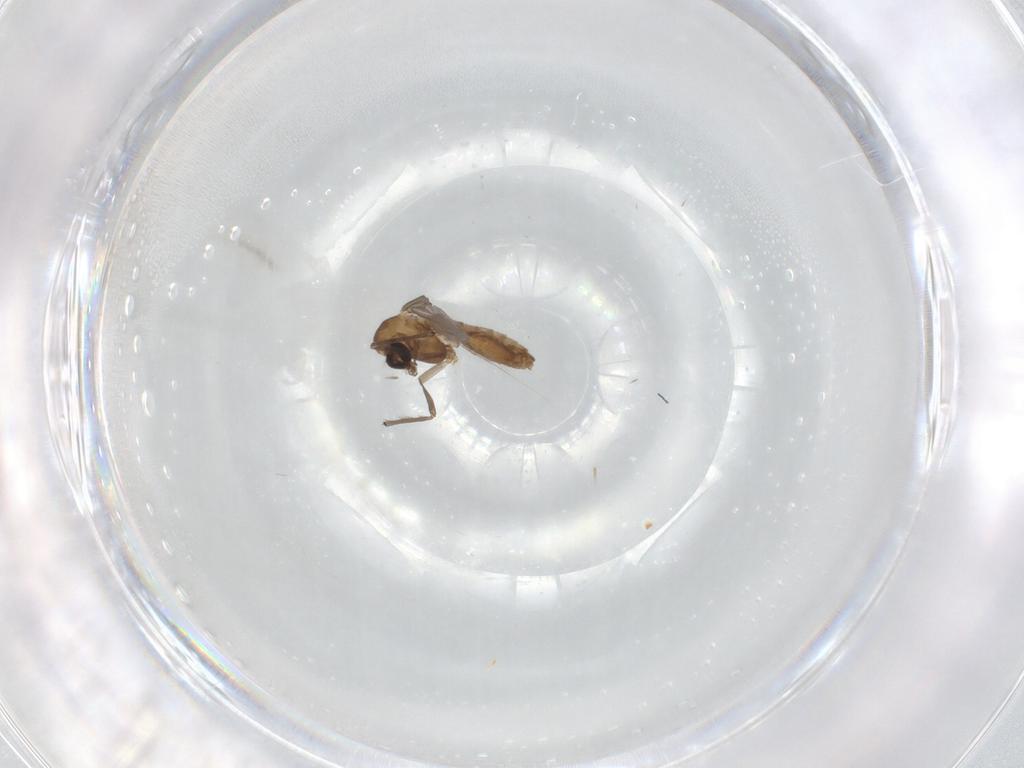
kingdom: Animalia
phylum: Arthropoda
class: Insecta
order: Diptera
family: Chironomidae
